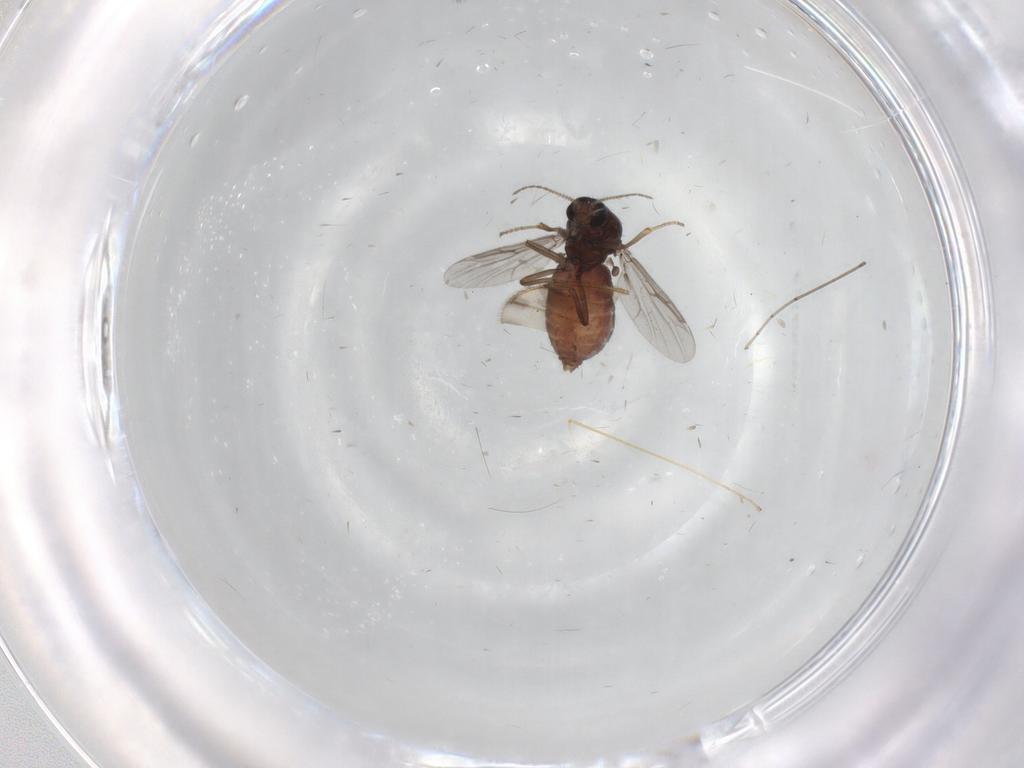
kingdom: Animalia
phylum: Arthropoda
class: Insecta
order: Diptera
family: Ceratopogonidae
